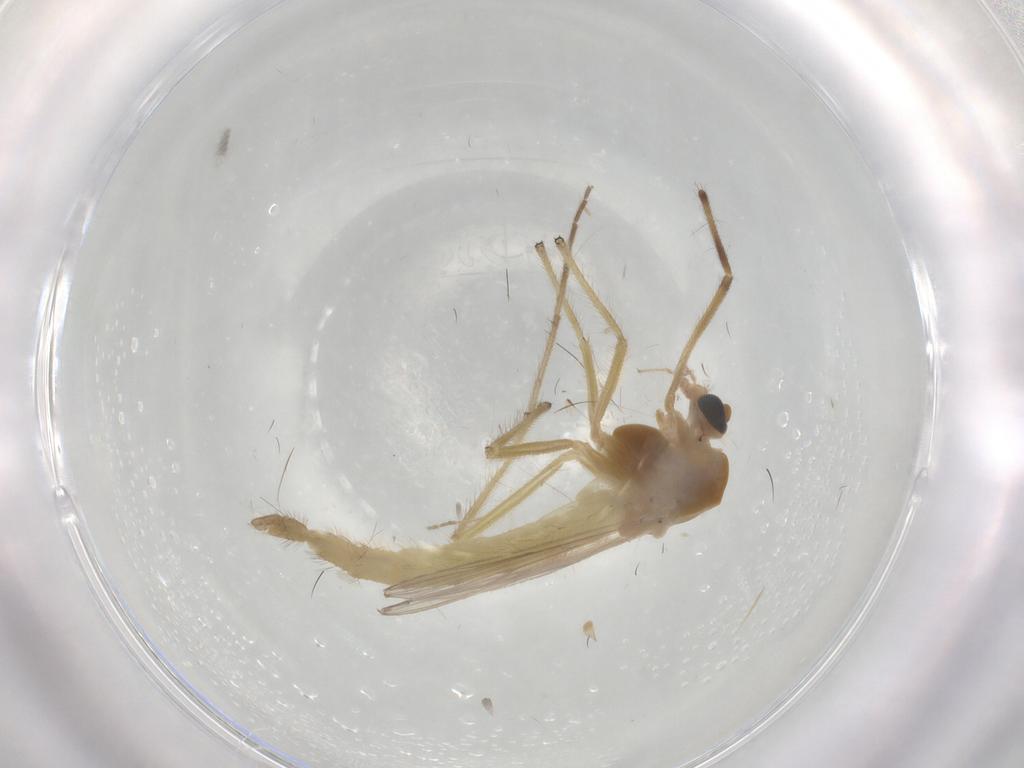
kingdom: Animalia
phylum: Arthropoda
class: Insecta
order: Diptera
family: Chironomidae
